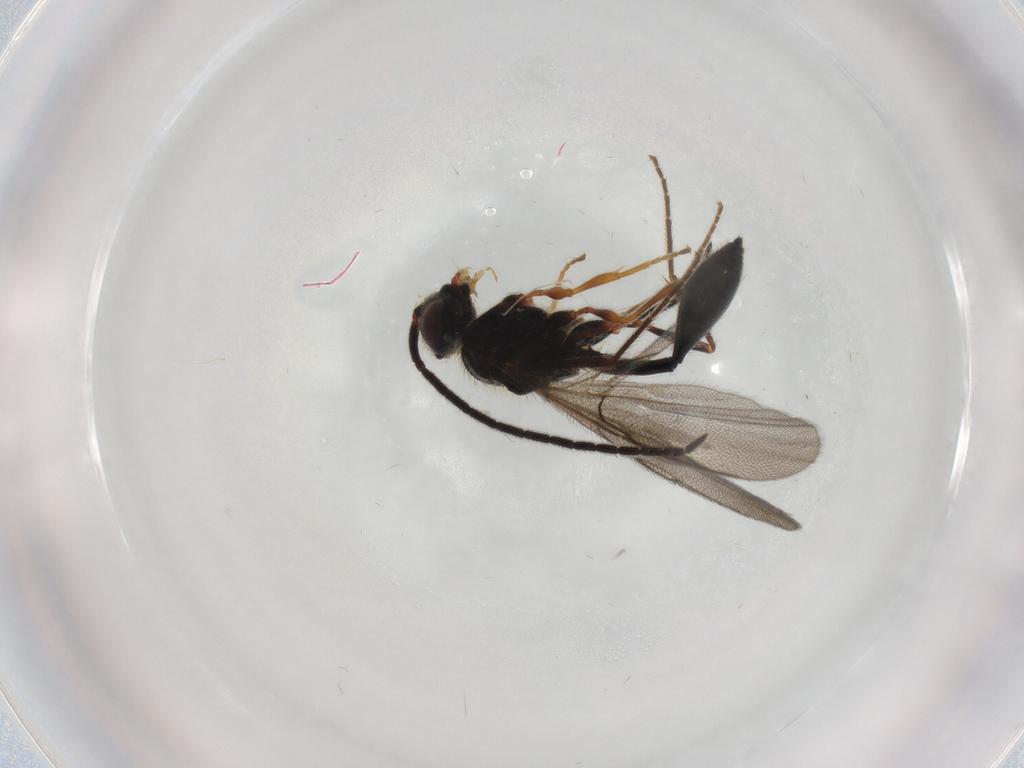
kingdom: Animalia
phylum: Arthropoda
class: Insecta
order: Hymenoptera
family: Diapriidae
